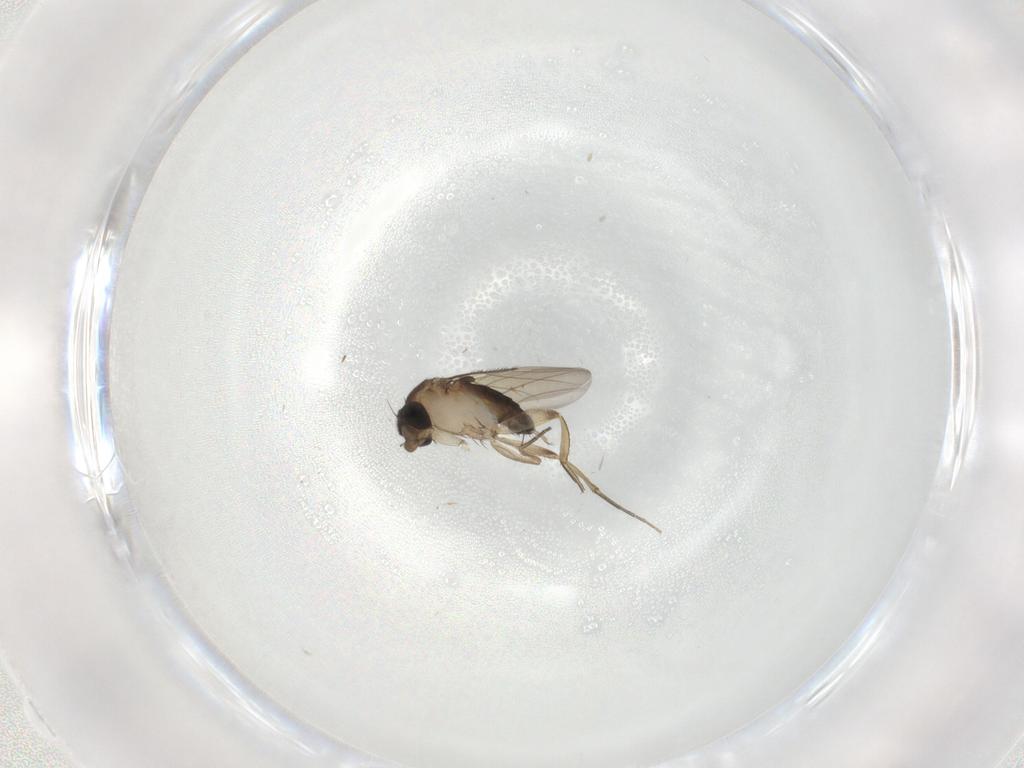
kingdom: Animalia
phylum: Arthropoda
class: Insecta
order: Diptera
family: Phoridae
